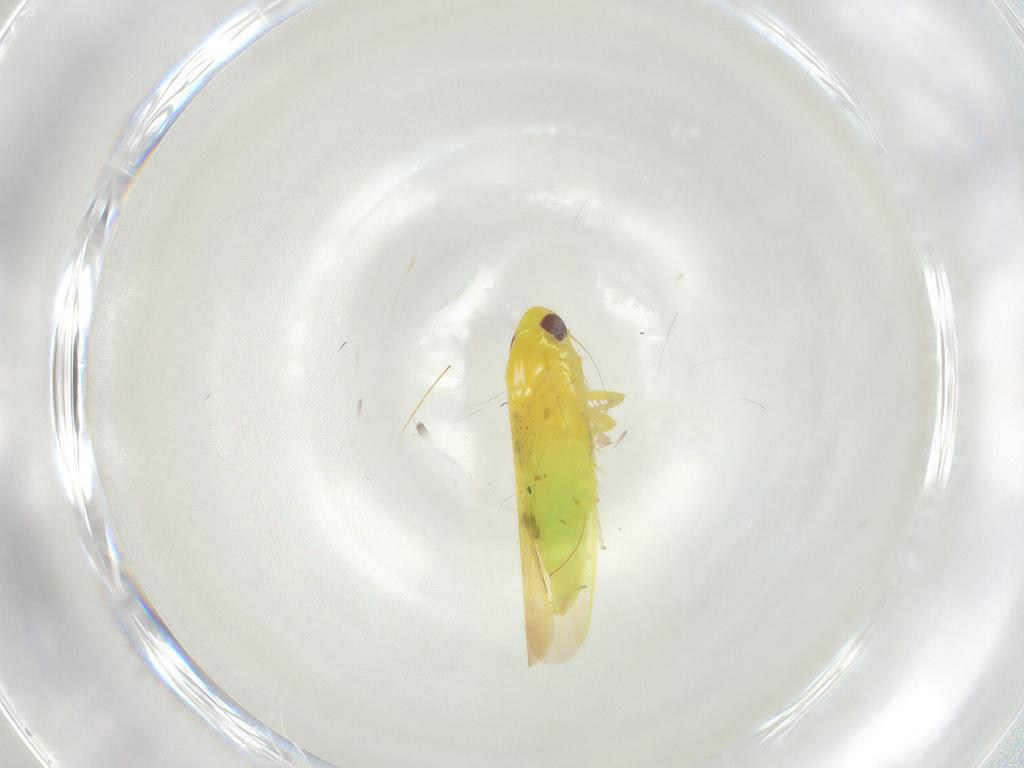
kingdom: Animalia
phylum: Arthropoda
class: Insecta
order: Hemiptera
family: Cicadellidae
